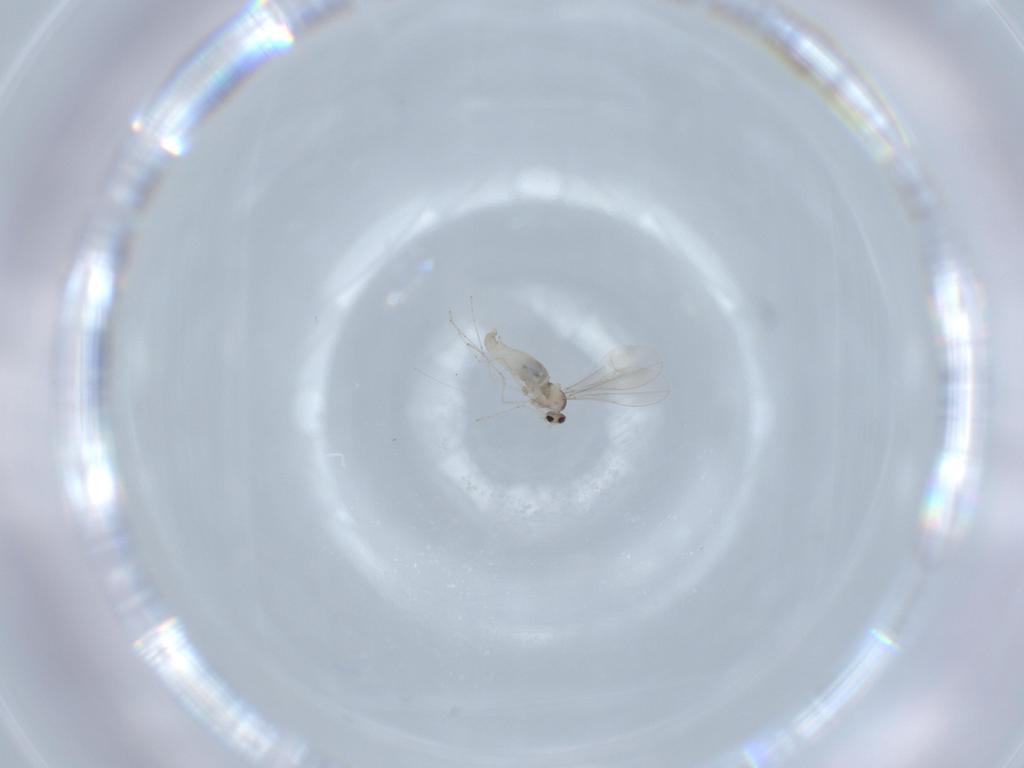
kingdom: Animalia
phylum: Arthropoda
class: Insecta
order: Diptera
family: Cecidomyiidae
